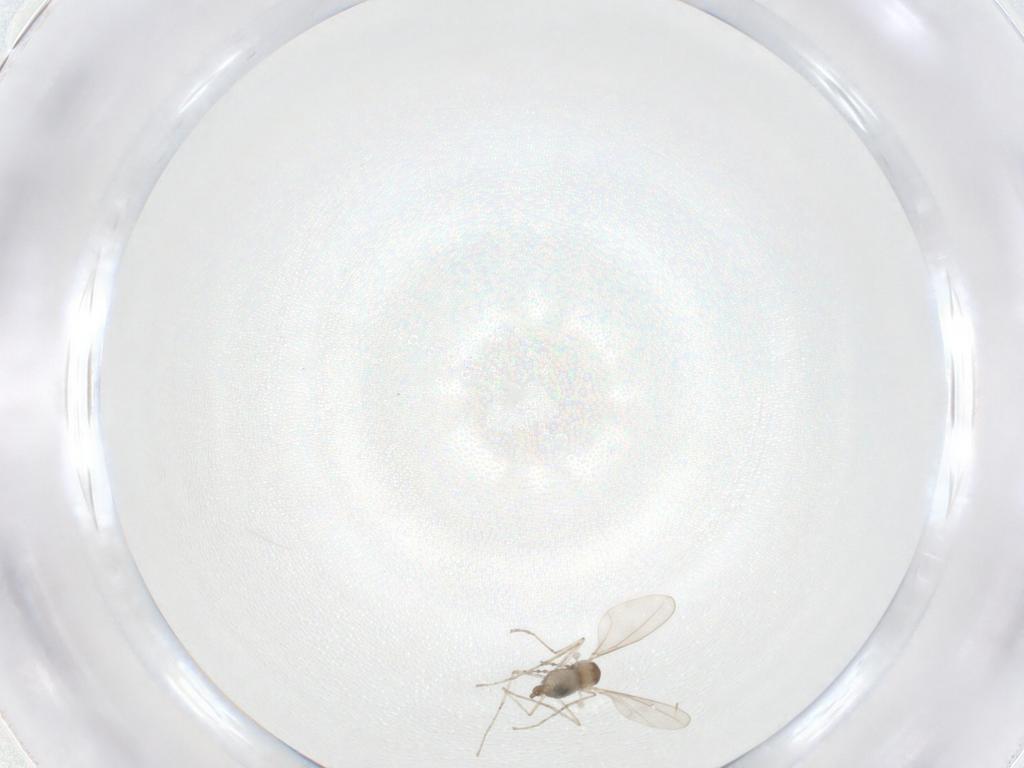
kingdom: Animalia
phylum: Arthropoda
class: Insecta
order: Diptera
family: Cecidomyiidae
